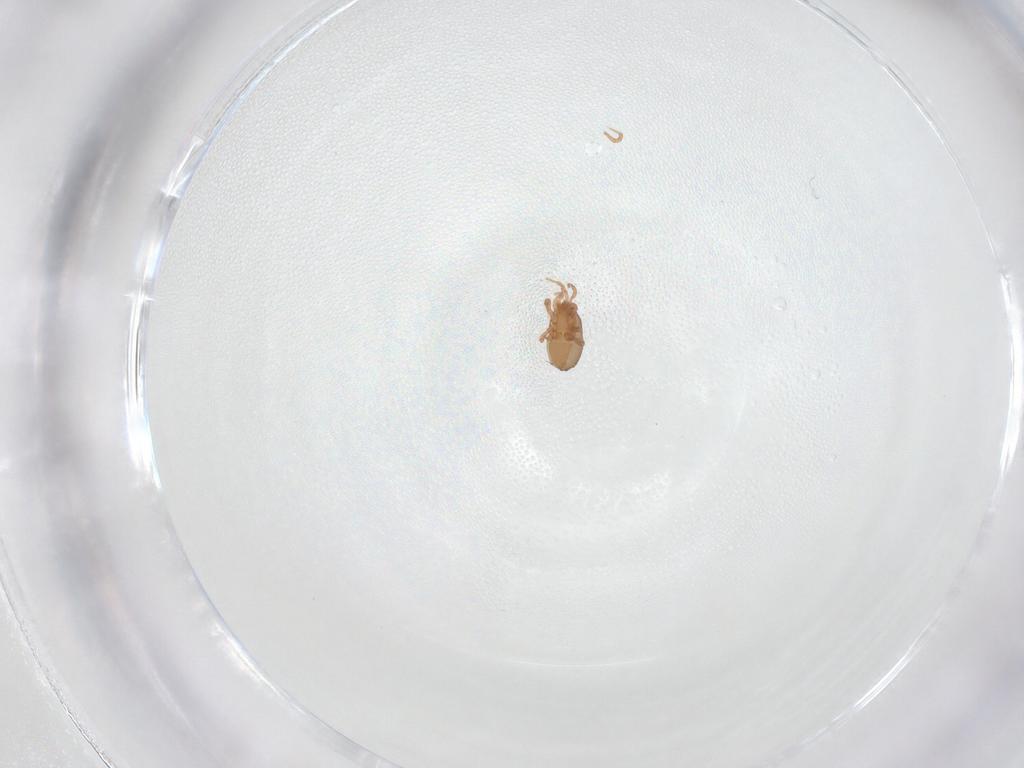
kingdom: Animalia
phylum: Arthropoda
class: Arachnida
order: Mesostigmata
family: Ologamasidae
